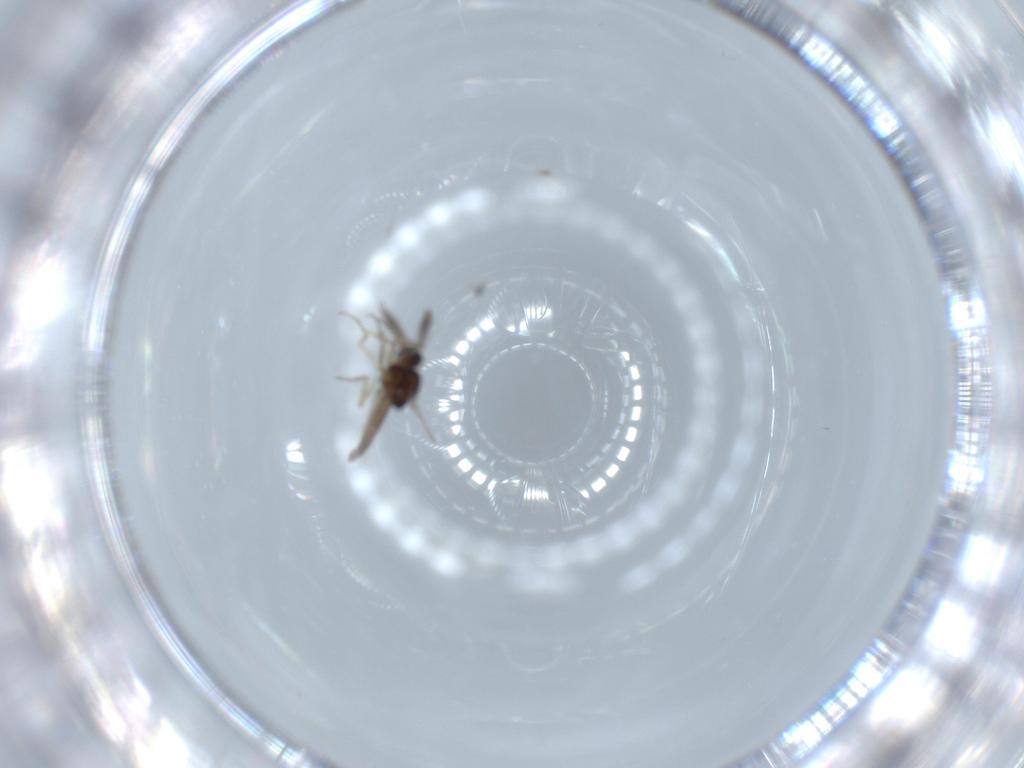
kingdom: Animalia
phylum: Arthropoda
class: Insecta
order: Diptera
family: Ceratopogonidae
